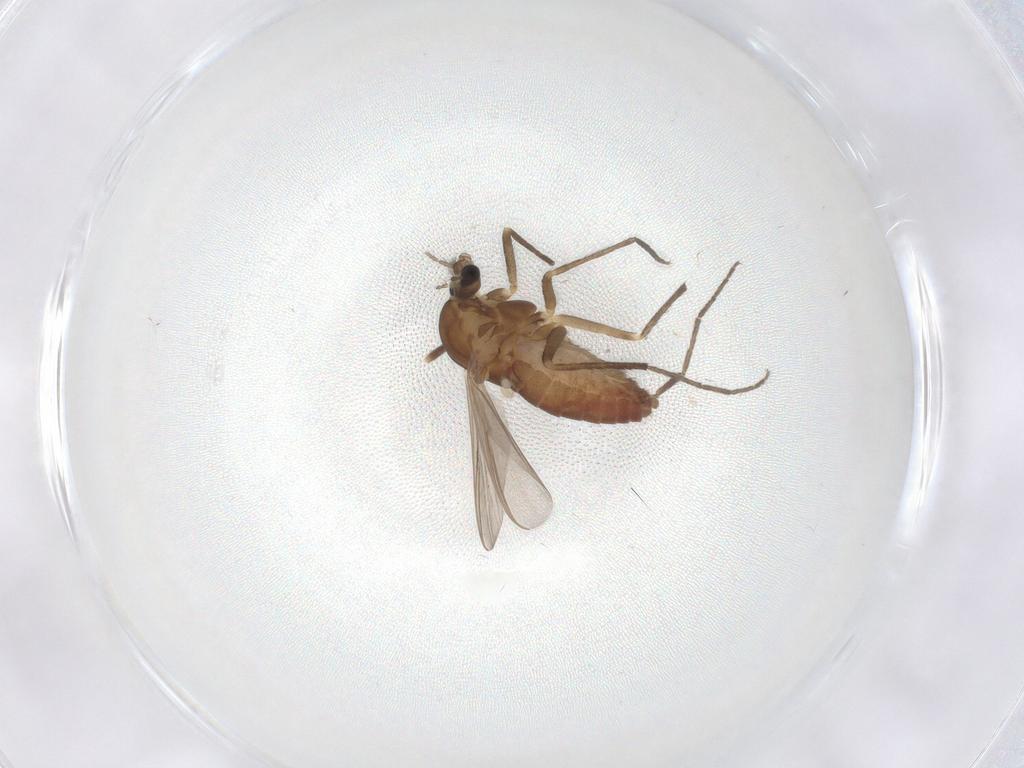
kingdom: Animalia
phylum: Arthropoda
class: Insecta
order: Diptera
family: Chironomidae
